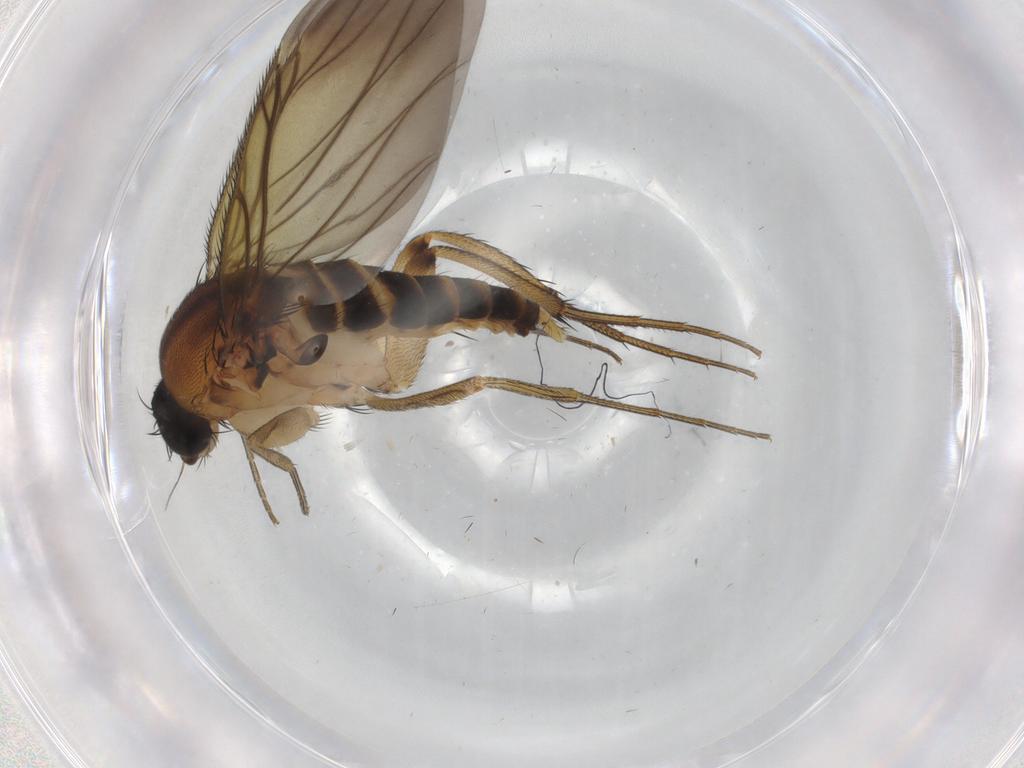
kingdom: Animalia
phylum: Arthropoda
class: Insecta
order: Diptera
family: Phoridae
